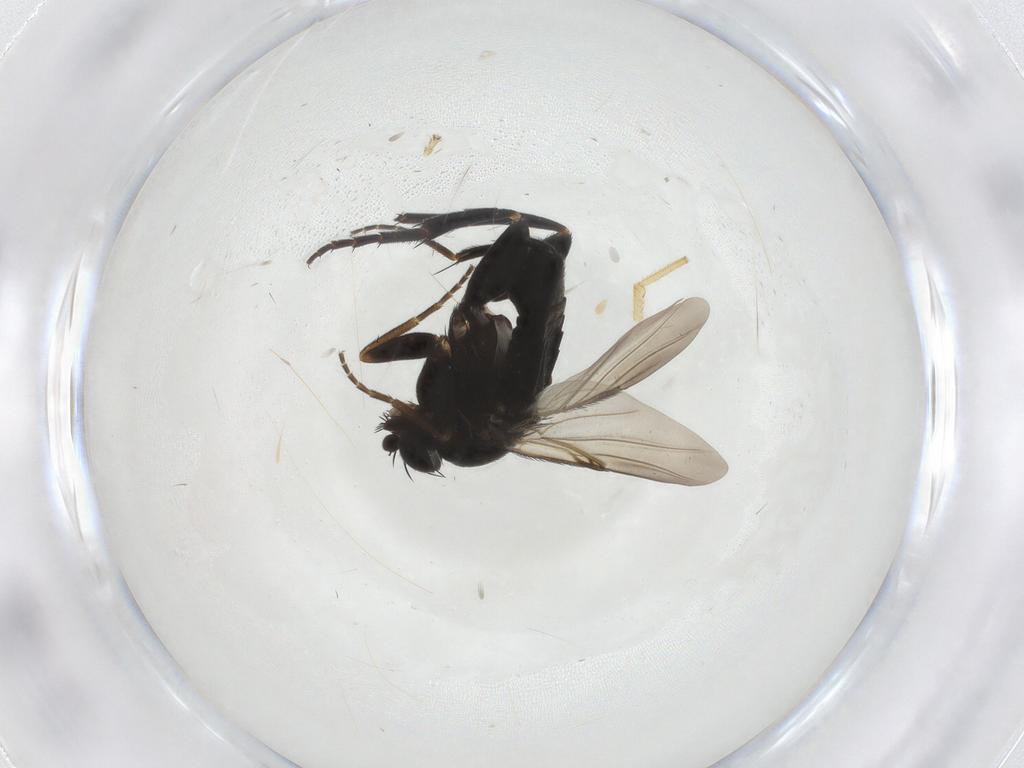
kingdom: Animalia
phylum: Arthropoda
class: Insecta
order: Diptera
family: Phoridae
